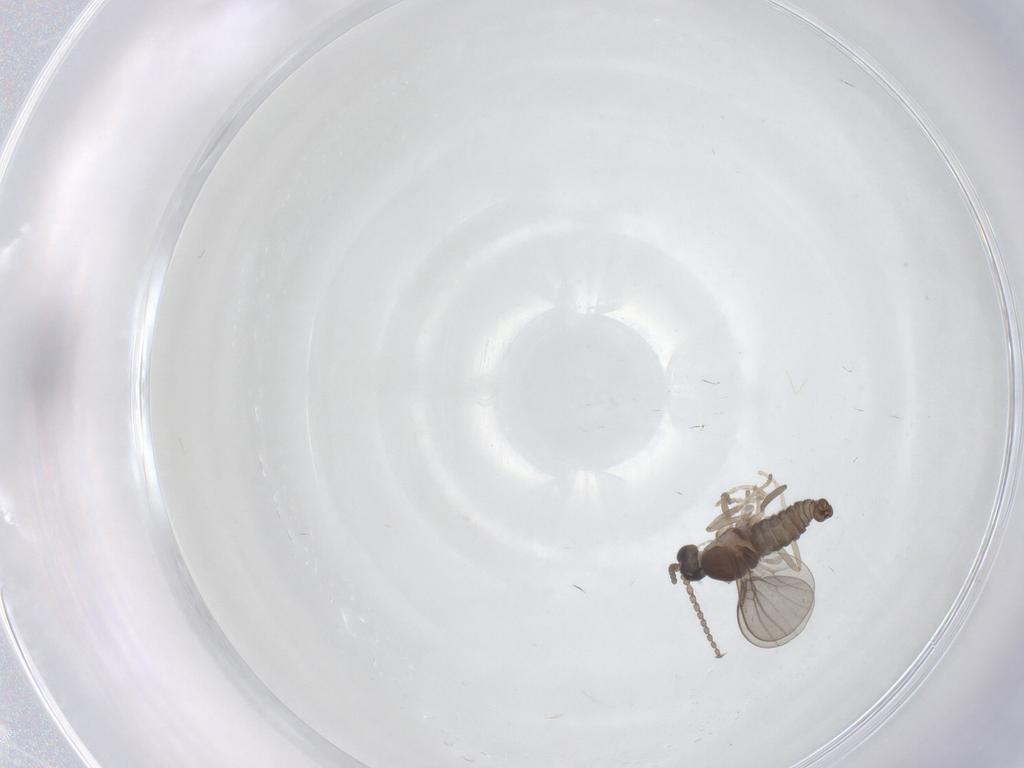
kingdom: Animalia
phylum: Arthropoda
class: Insecta
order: Diptera
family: Cecidomyiidae
